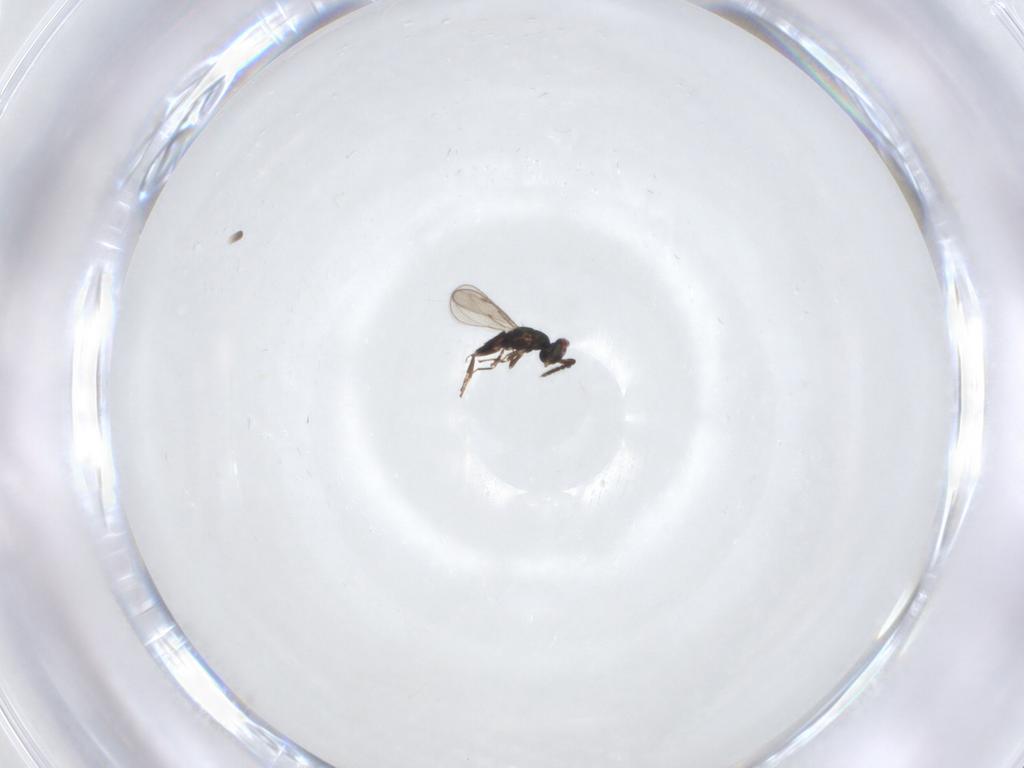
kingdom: Animalia
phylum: Arthropoda
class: Insecta
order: Hymenoptera
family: Eulophidae
